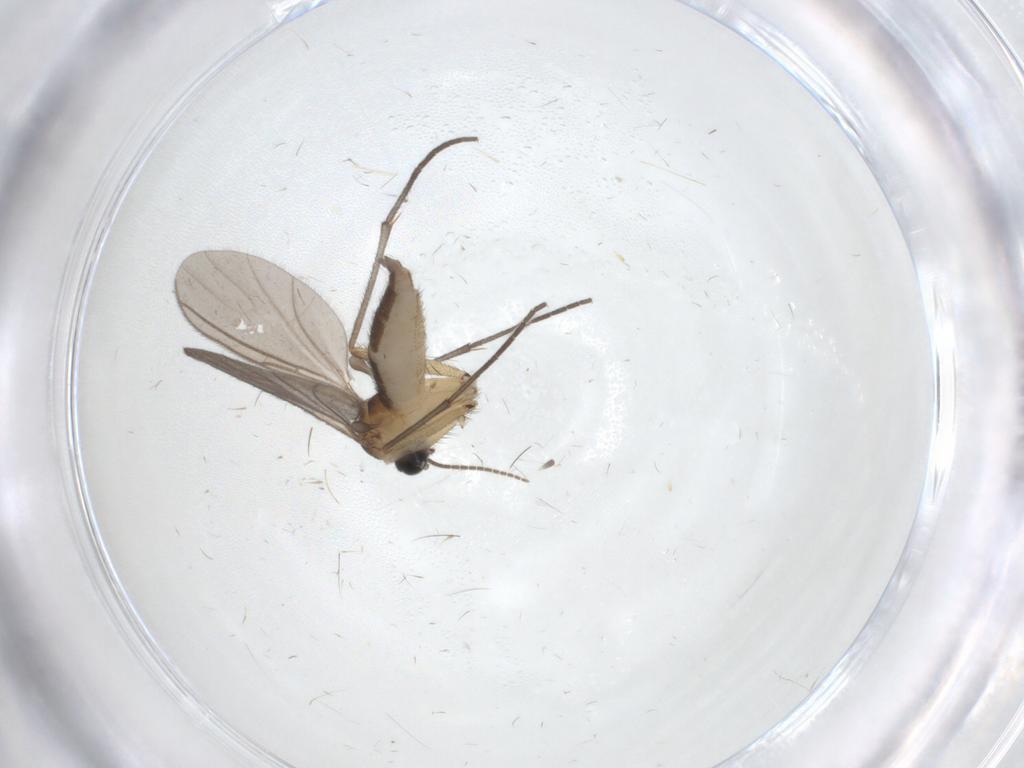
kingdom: Animalia
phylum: Arthropoda
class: Insecta
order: Diptera
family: Sciaridae
